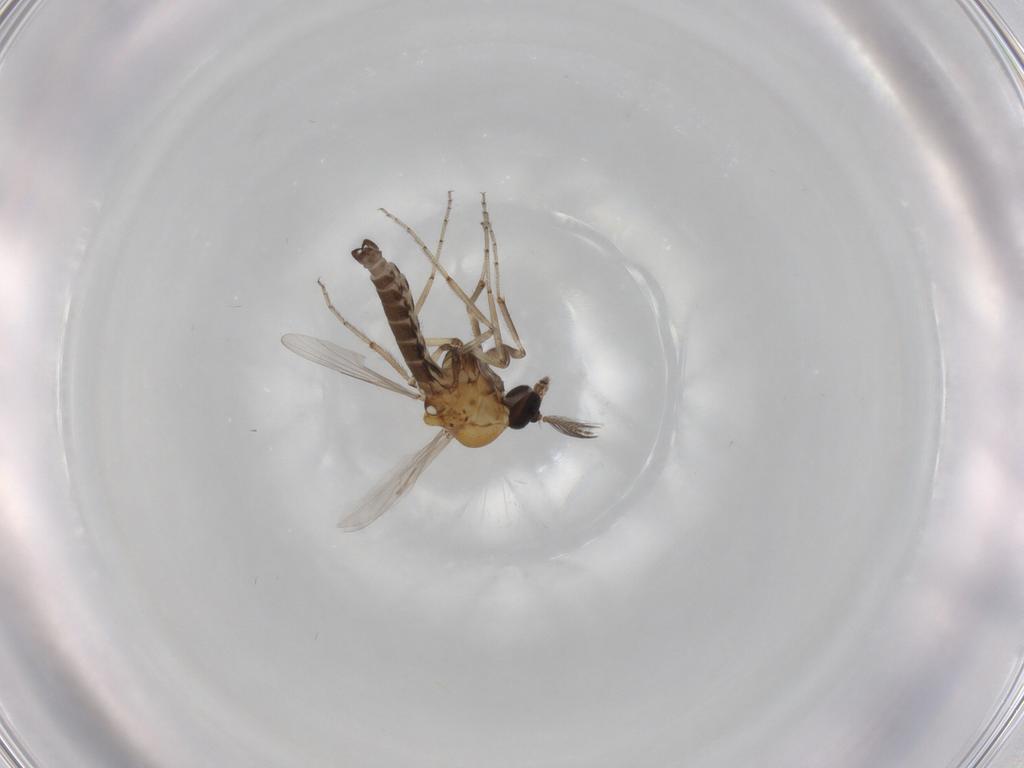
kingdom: Animalia
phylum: Arthropoda
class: Insecta
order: Diptera
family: Ceratopogonidae
